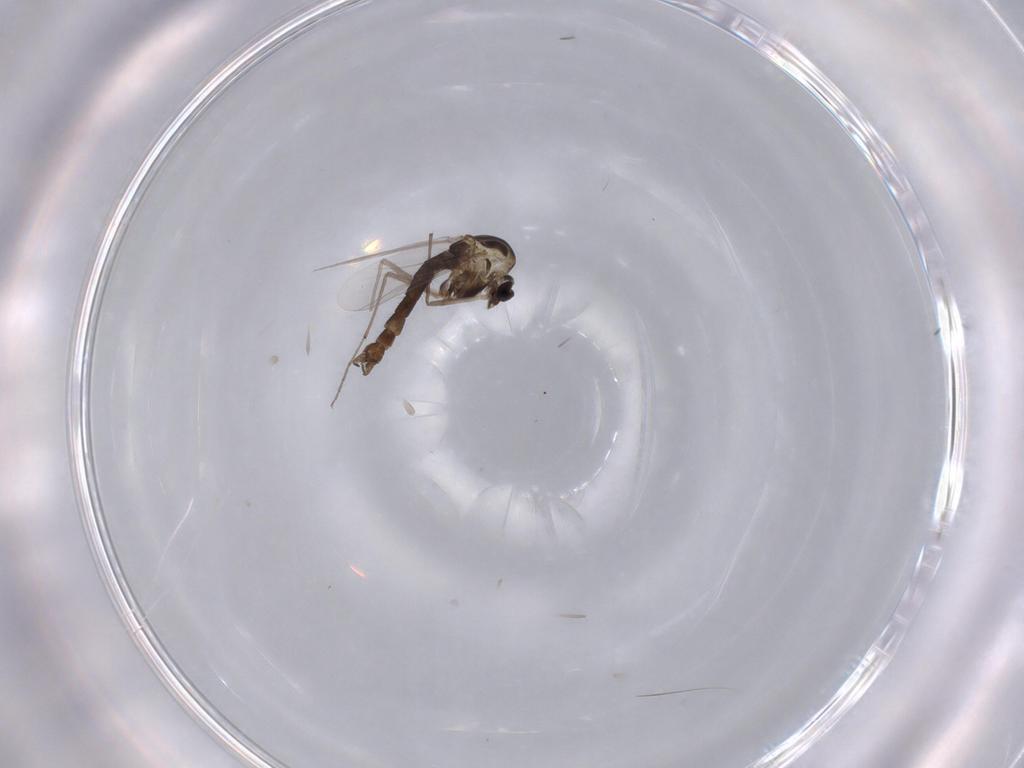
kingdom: Animalia
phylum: Arthropoda
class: Insecta
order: Diptera
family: Chironomidae
